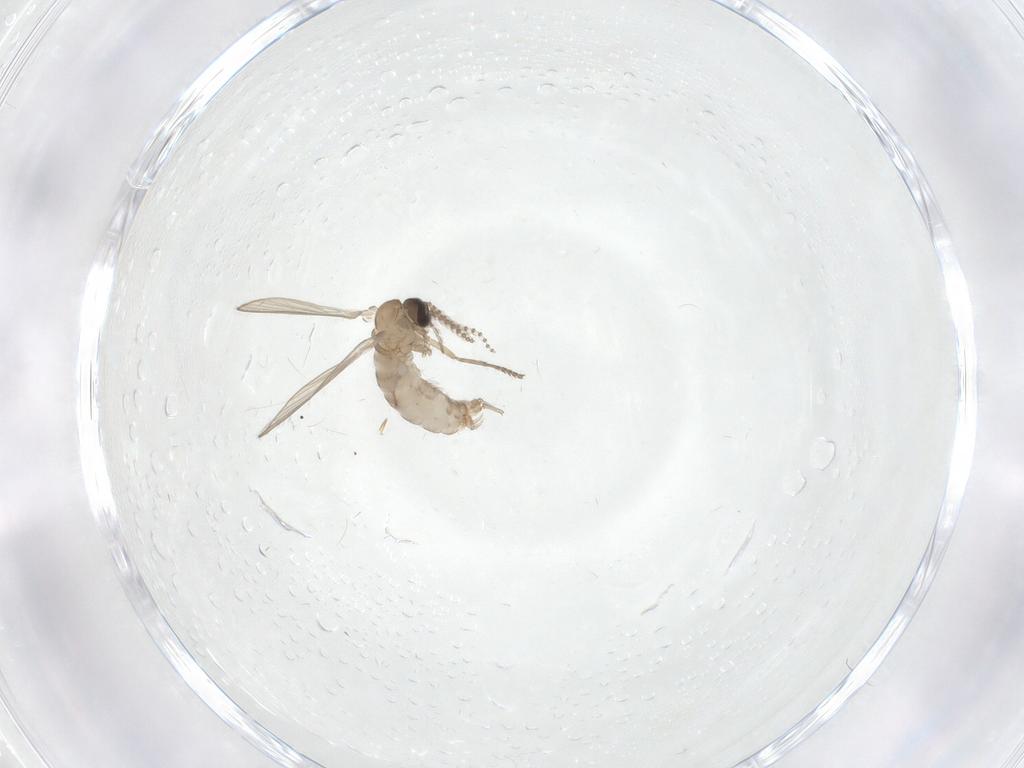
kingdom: Animalia
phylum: Arthropoda
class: Insecta
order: Diptera
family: Psychodidae
